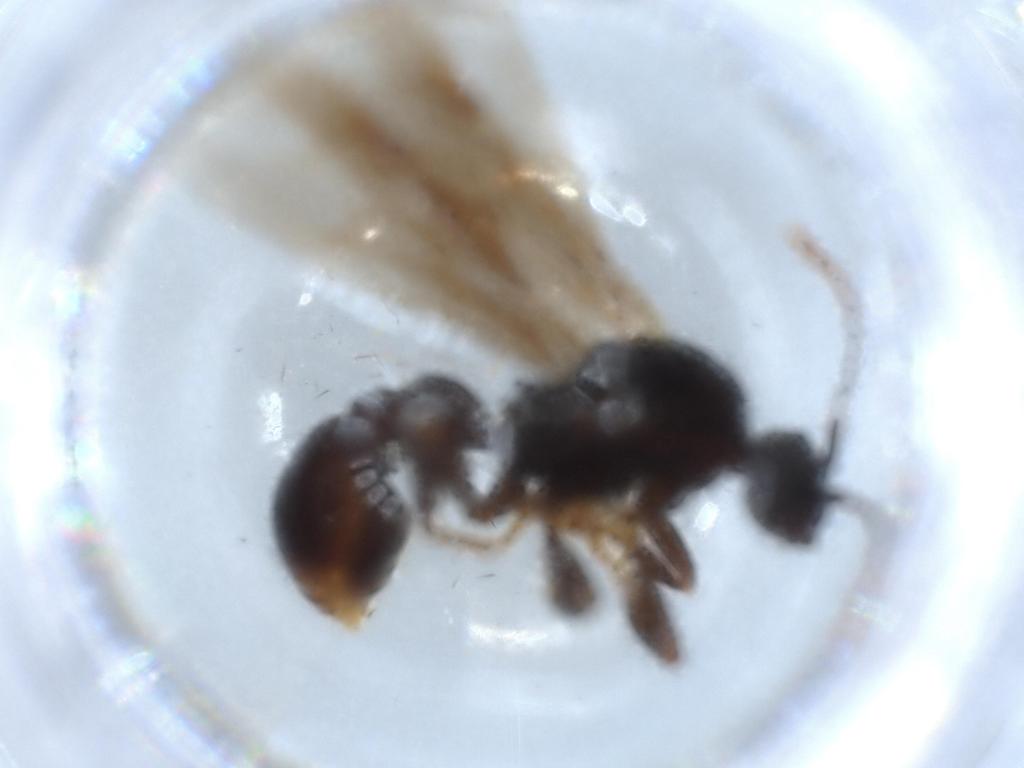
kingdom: Animalia
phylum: Arthropoda
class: Insecta
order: Hymenoptera
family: Formicidae
